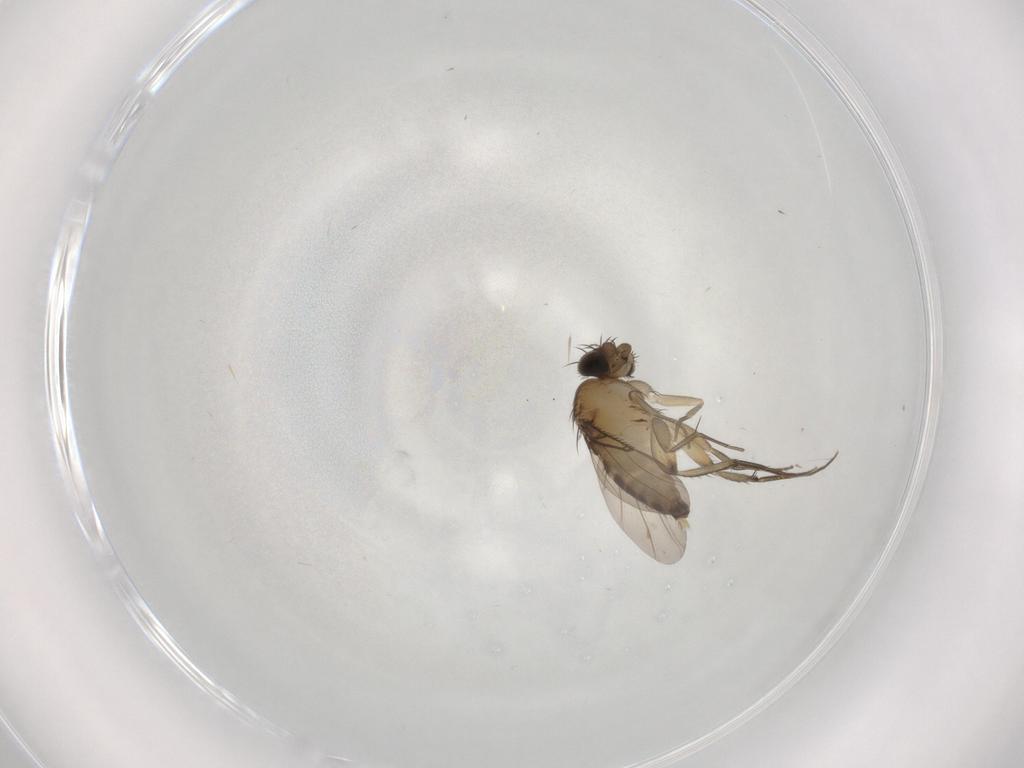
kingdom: Animalia
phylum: Arthropoda
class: Insecta
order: Diptera
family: Phoridae
